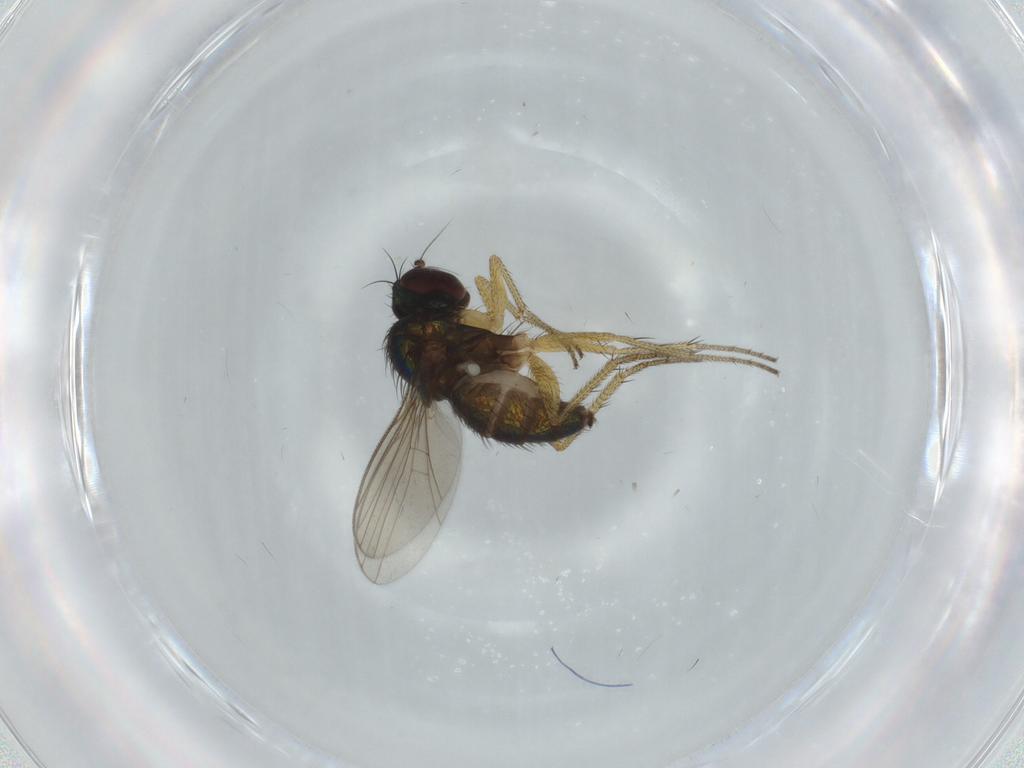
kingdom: Animalia
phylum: Arthropoda
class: Insecta
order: Diptera
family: Dolichopodidae
